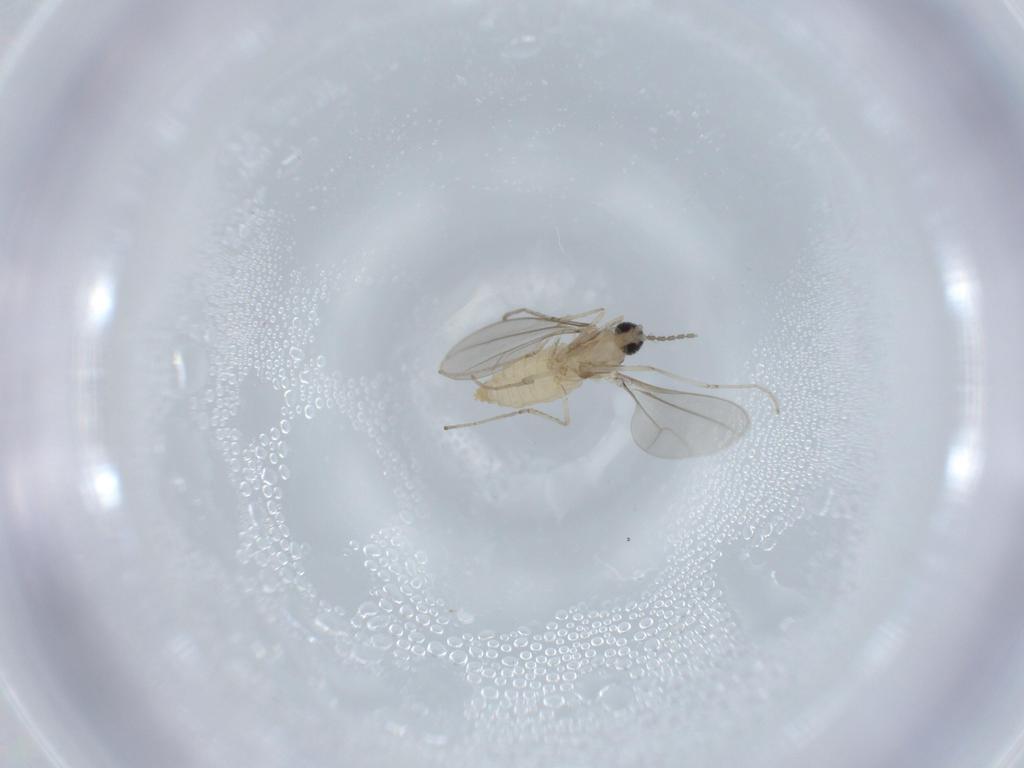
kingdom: Animalia
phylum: Arthropoda
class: Insecta
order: Diptera
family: Cecidomyiidae
